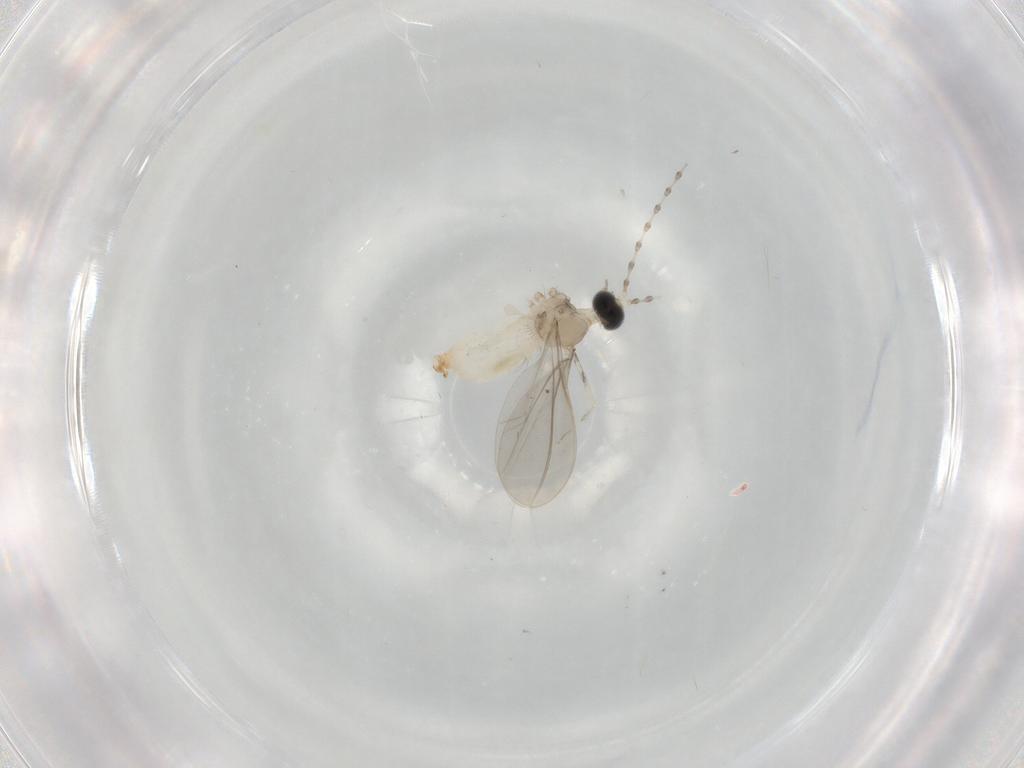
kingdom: Animalia
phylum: Arthropoda
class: Insecta
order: Diptera
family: Cecidomyiidae
